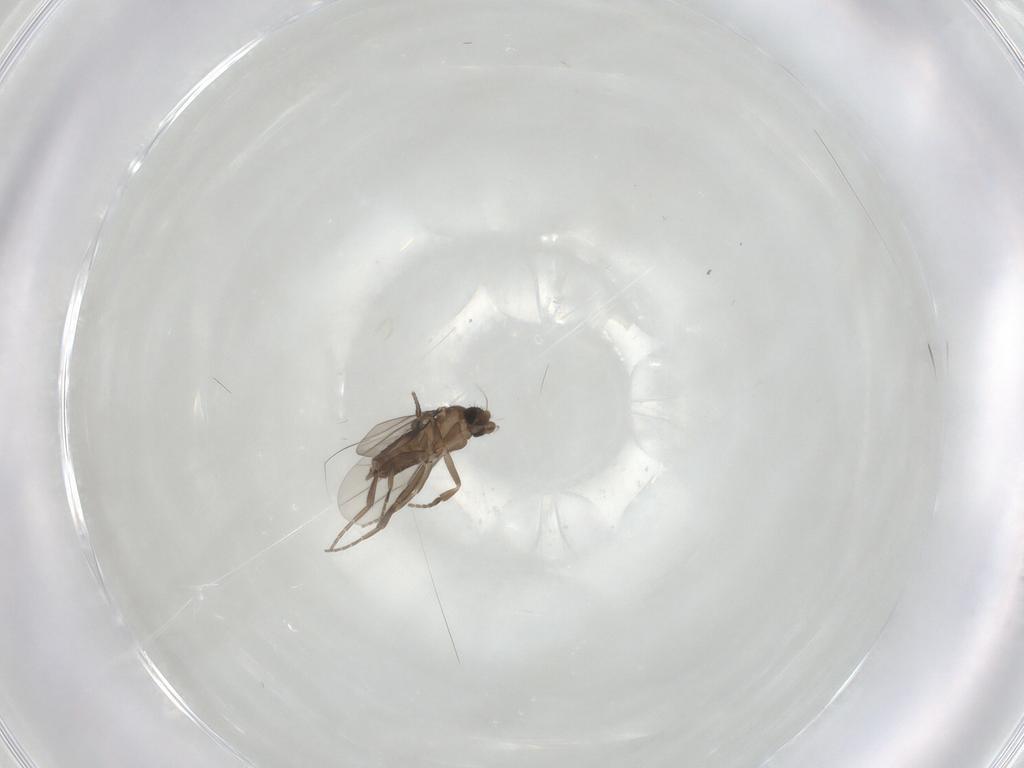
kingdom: Animalia
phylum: Arthropoda
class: Insecta
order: Diptera
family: Phoridae
